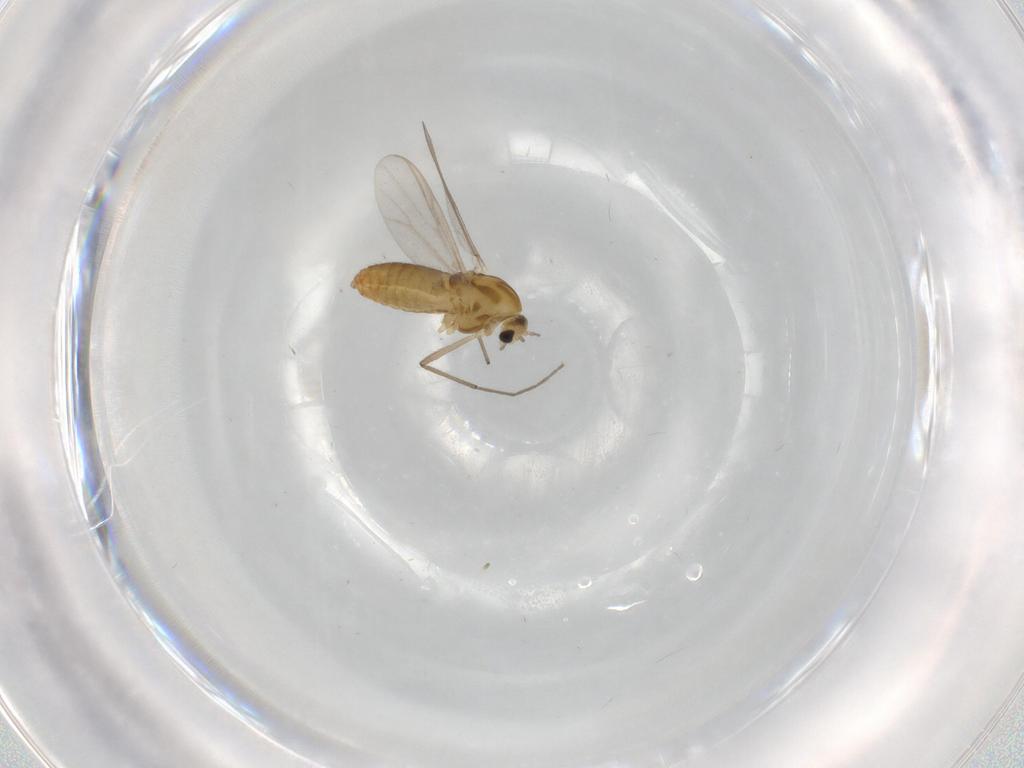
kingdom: Animalia
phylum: Arthropoda
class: Insecta
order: Diptera
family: Chironomidae
